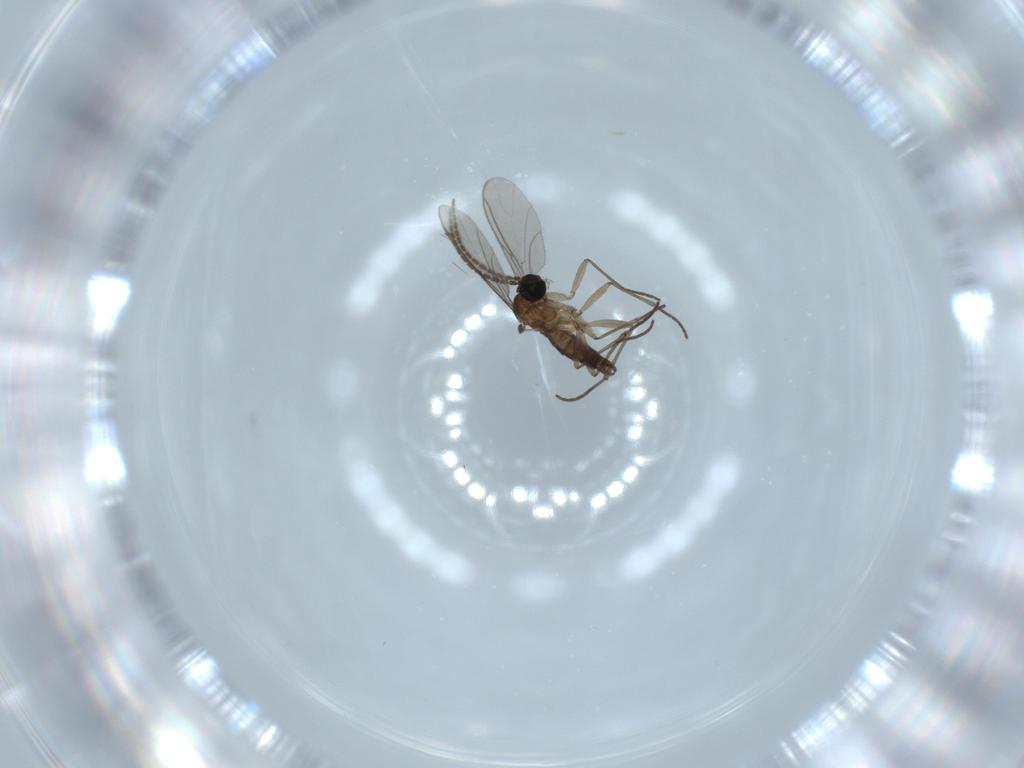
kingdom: Animalia
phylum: Arthropoda
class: Insecta
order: Diptera
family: Sciaridae
